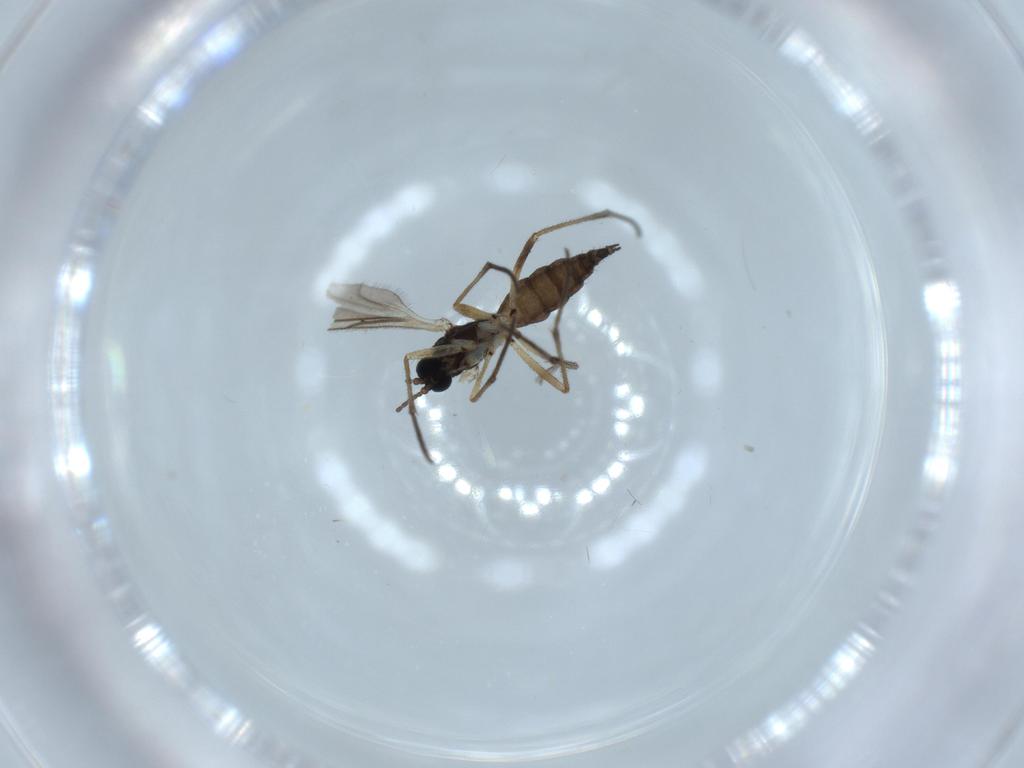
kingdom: Animalia
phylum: Arthropoda
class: Insecta
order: Diptera
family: Sciaridae
